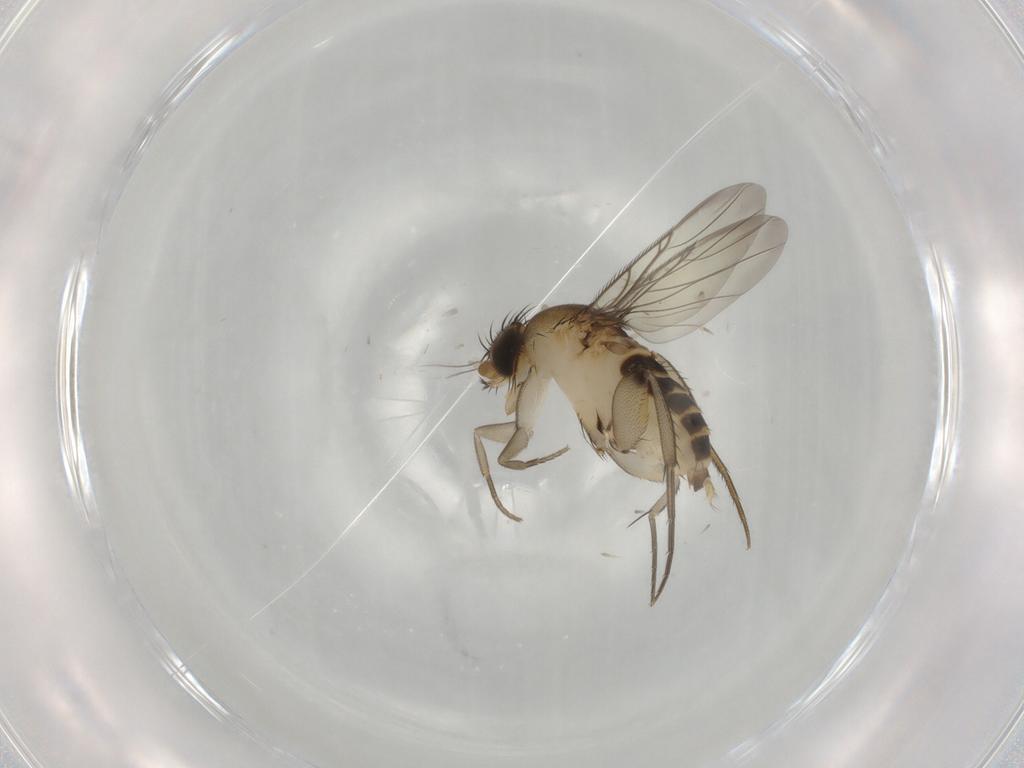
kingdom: Animalia
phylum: Arthropoda
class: Insecta
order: Diptera
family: Phoridae
